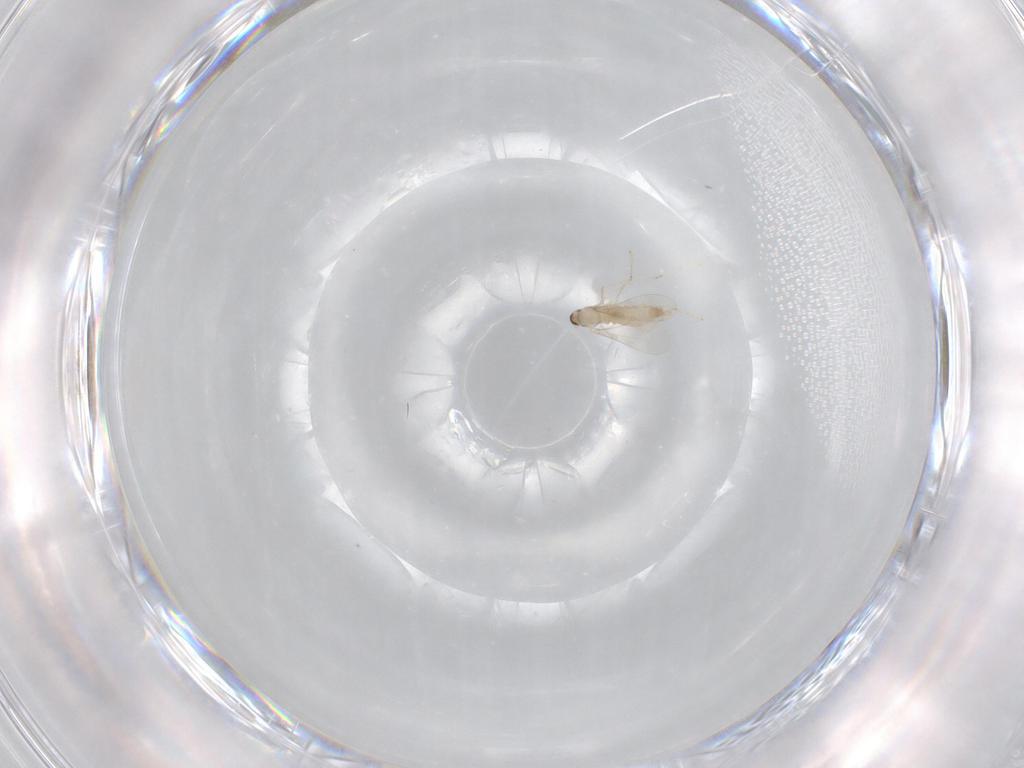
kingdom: Animalia
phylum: Arthropoda
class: Insecta
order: Diptera
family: Cecidomyiidae
